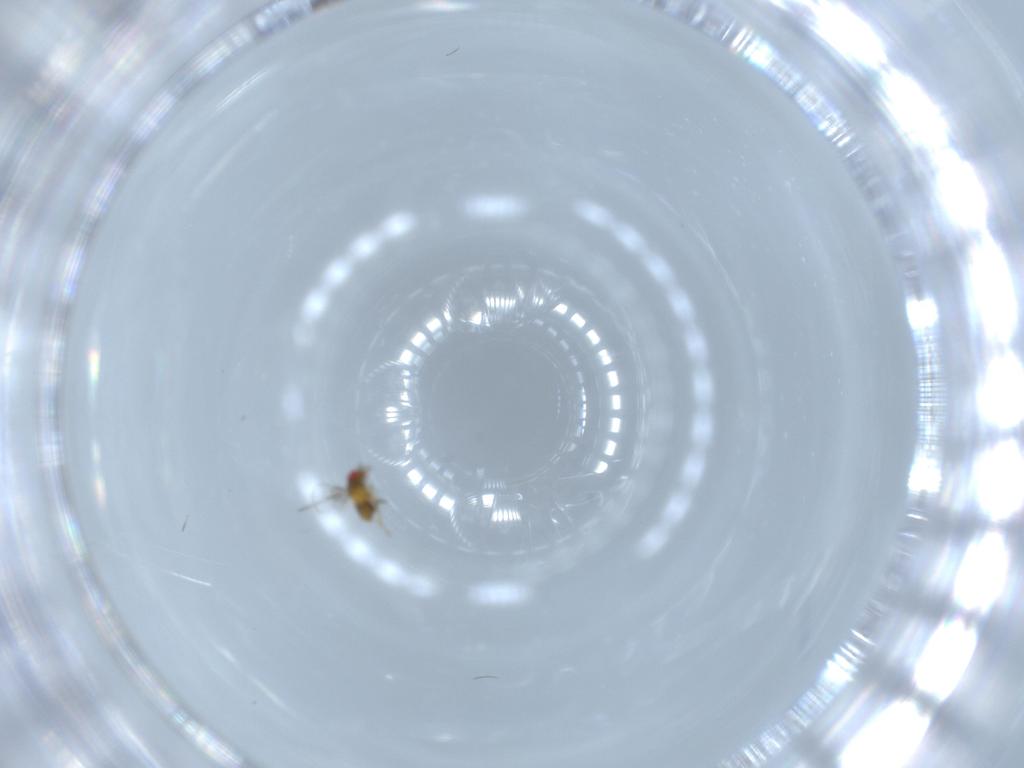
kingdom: Animalia
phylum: Arthropoda
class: Insecta
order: Hymenoptera
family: Trichogrammatidae
